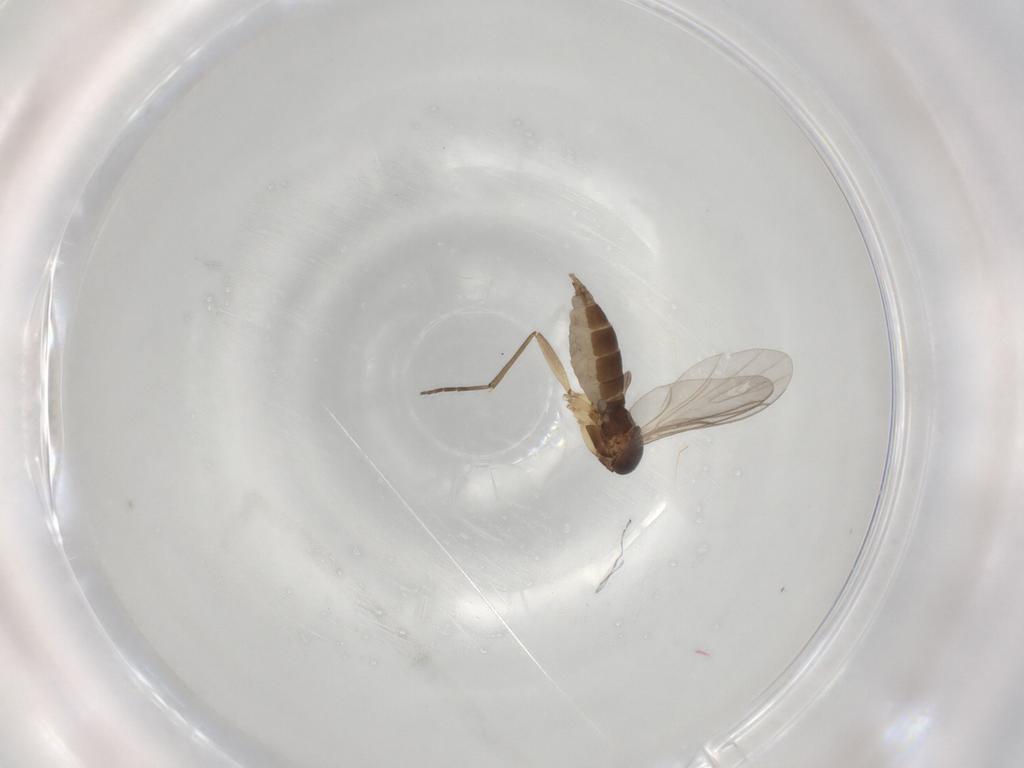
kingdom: Animalia
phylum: Arthropoda
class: Insecta
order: Diptera
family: Sciaridae
